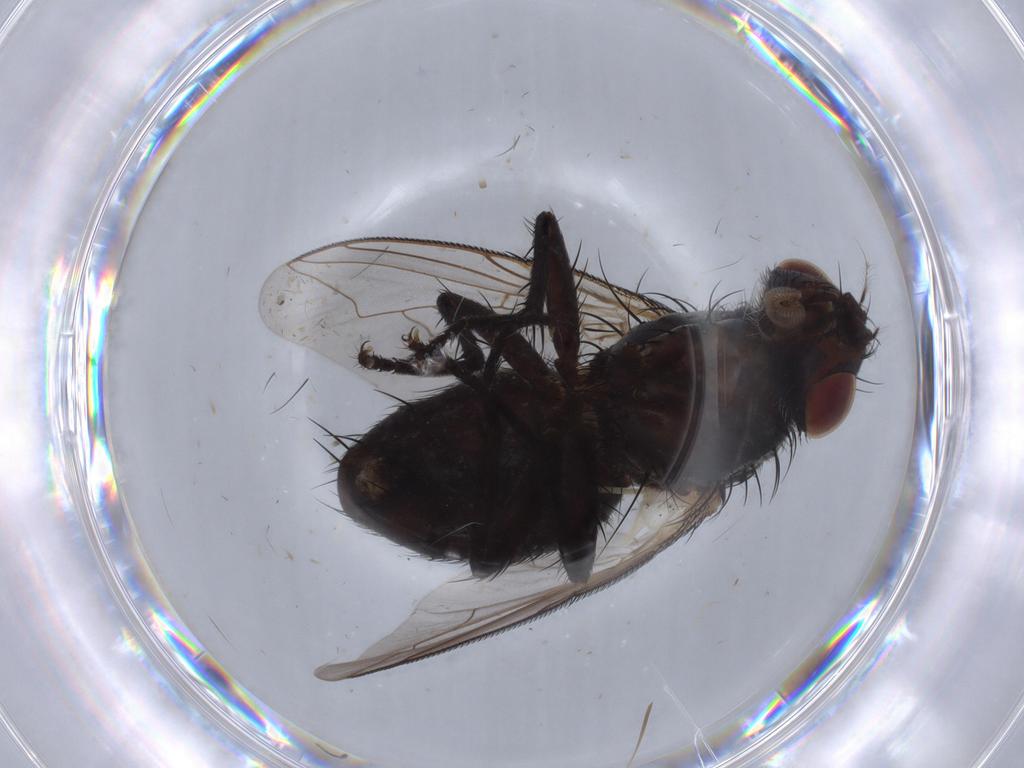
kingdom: Animalia
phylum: Arthropoda
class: Insecta
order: Diptera
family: Sarcophagidae
